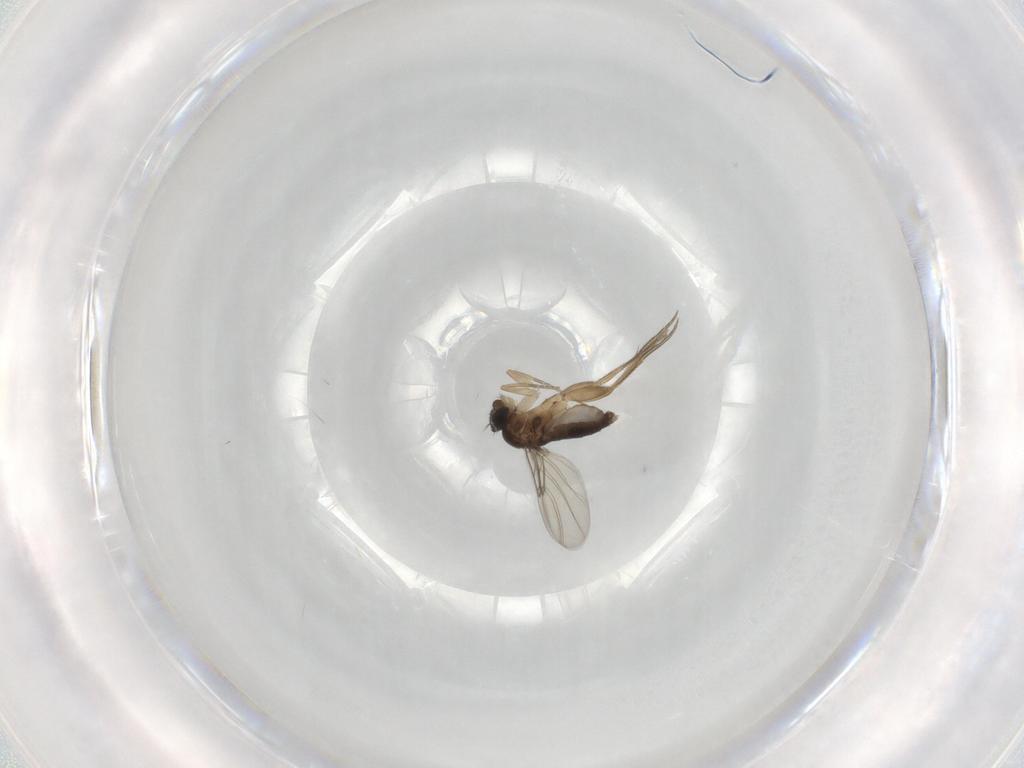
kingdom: Animalia
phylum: Arthropoda
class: Insecta
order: Diptera
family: Phoridae
